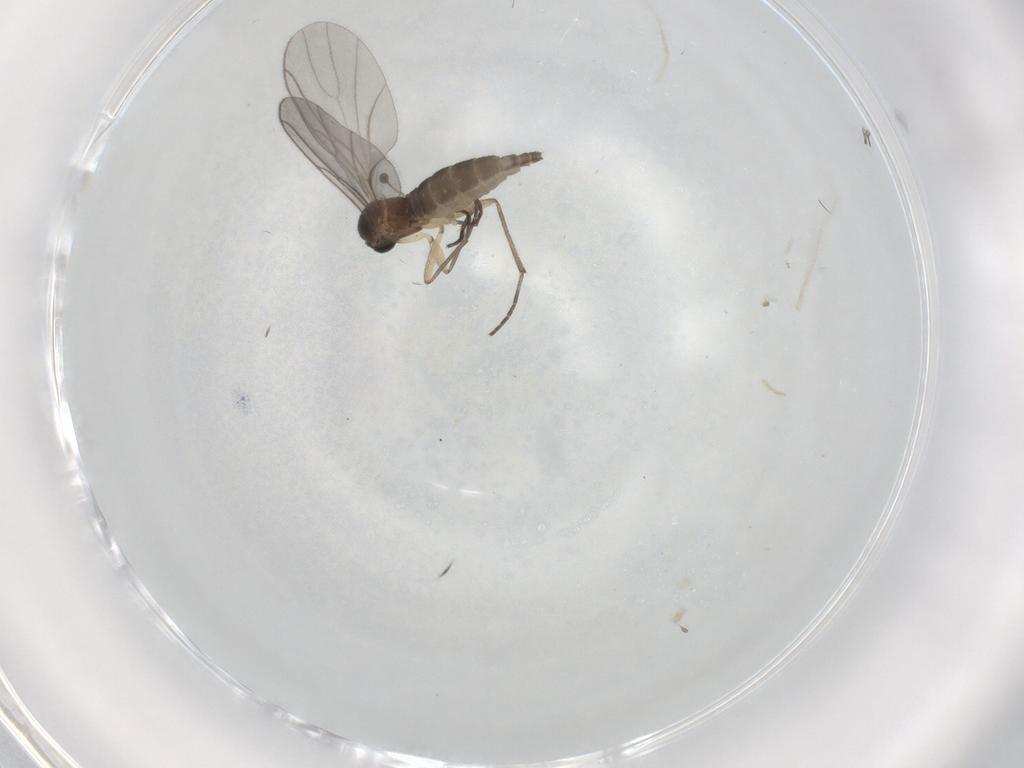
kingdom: Animalia
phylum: Arthropoda
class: Insecta
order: Diptera
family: Sciaridae
